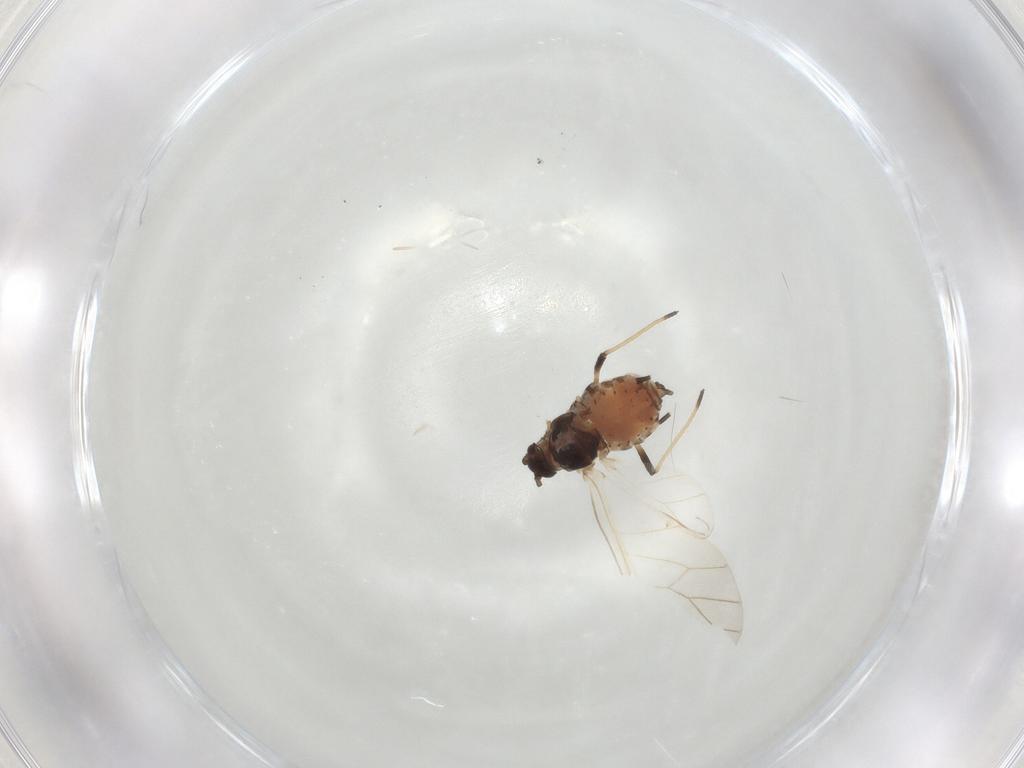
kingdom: Animalia
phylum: Arthropoda
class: Insecta
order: Hemiptera
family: Aphididae
